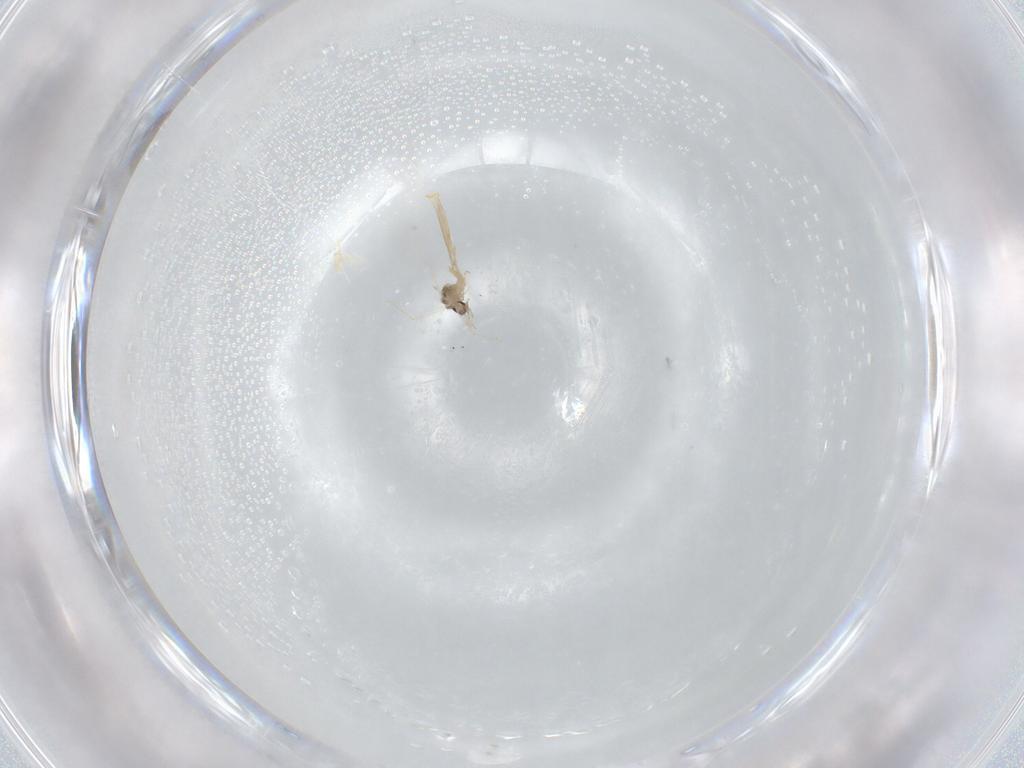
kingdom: Animalia
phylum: Arthropoda
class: Insecta
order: Diptera
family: Cecidomyiidae
